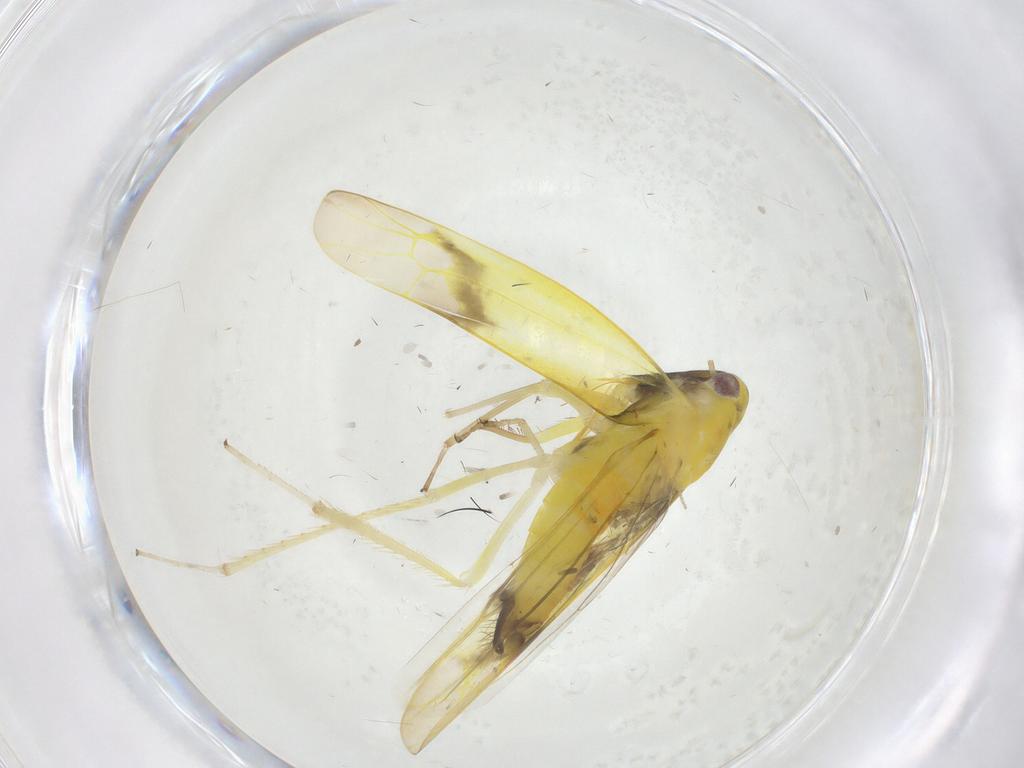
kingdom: Animalia
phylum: Arthropoda
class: Insecta
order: Hemiptera
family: Cicadellidae
